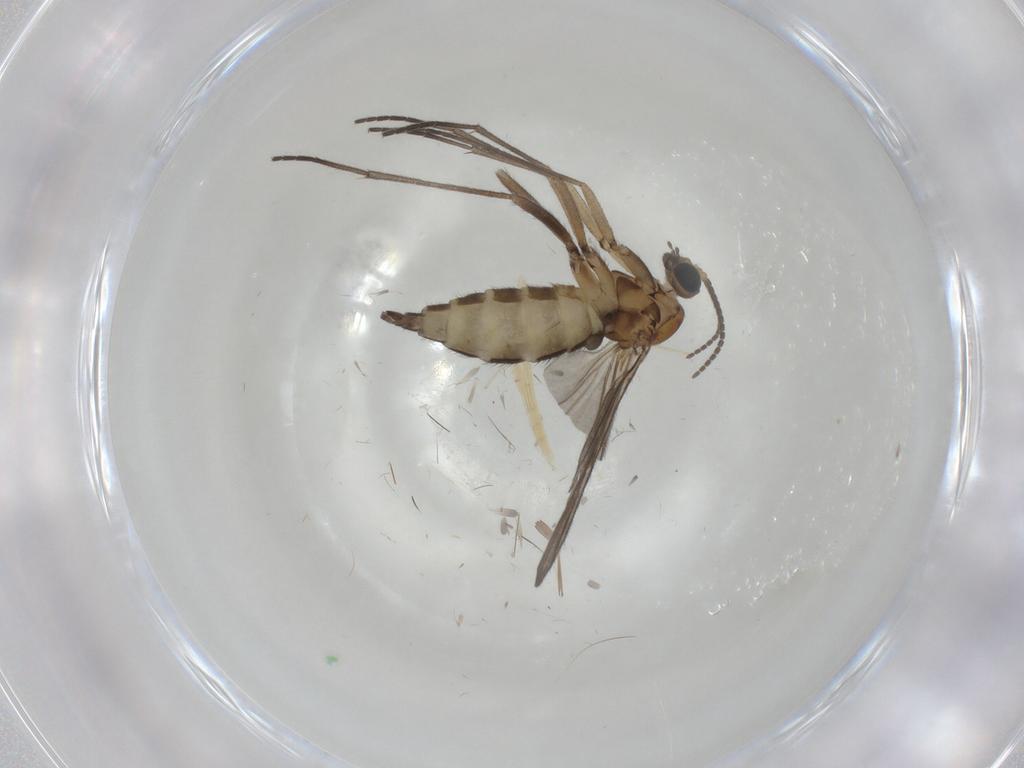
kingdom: Animalia
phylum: Arthropoda
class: Insecta
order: Diptera
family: Sciaridae
